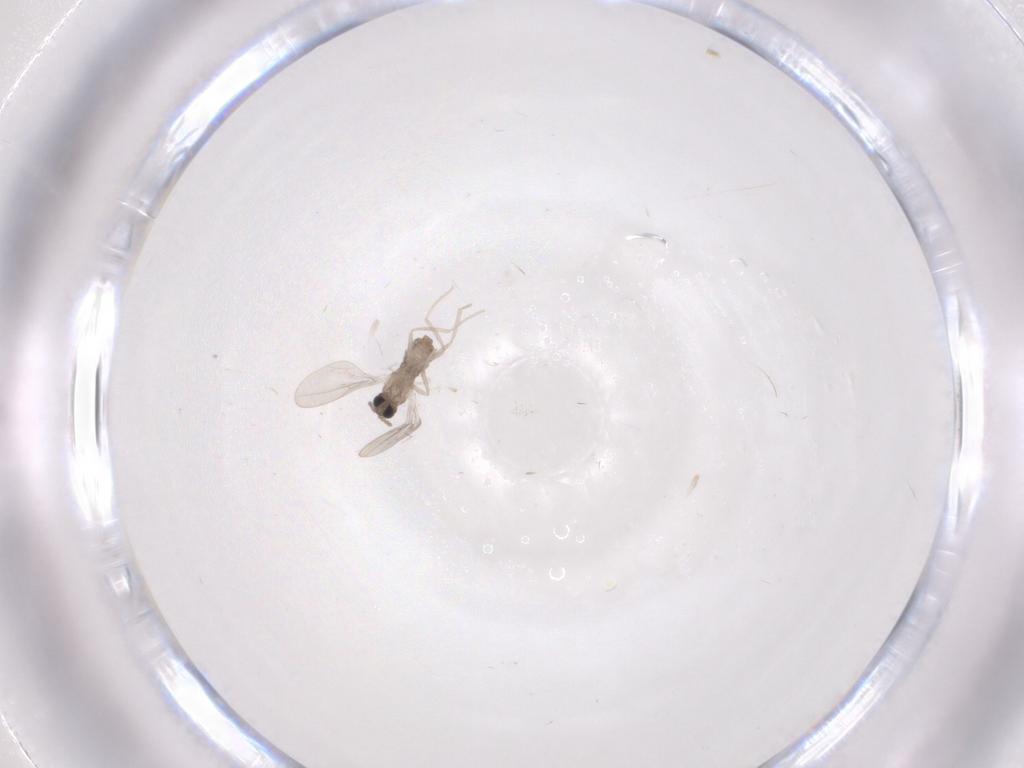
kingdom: Animalia
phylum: Arthropoda
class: Insecta
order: Diptera
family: Cecidomyiidae
